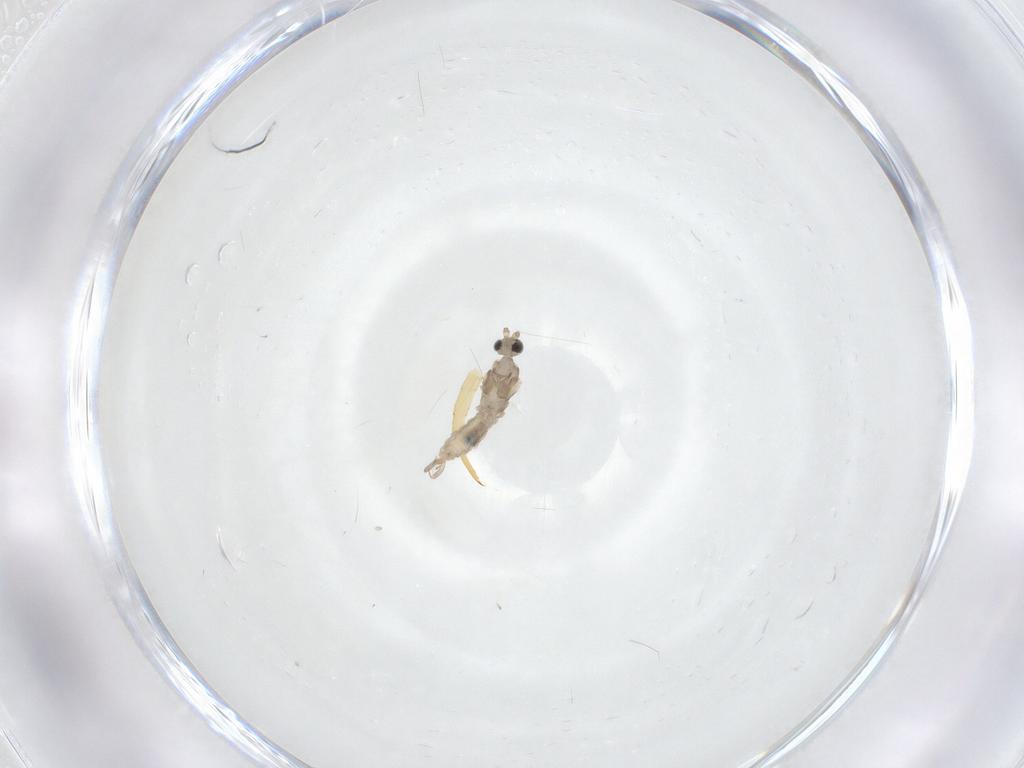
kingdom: Animalia
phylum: Arthropoda
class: Insecta
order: Diptera
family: Cecidomyiidae
